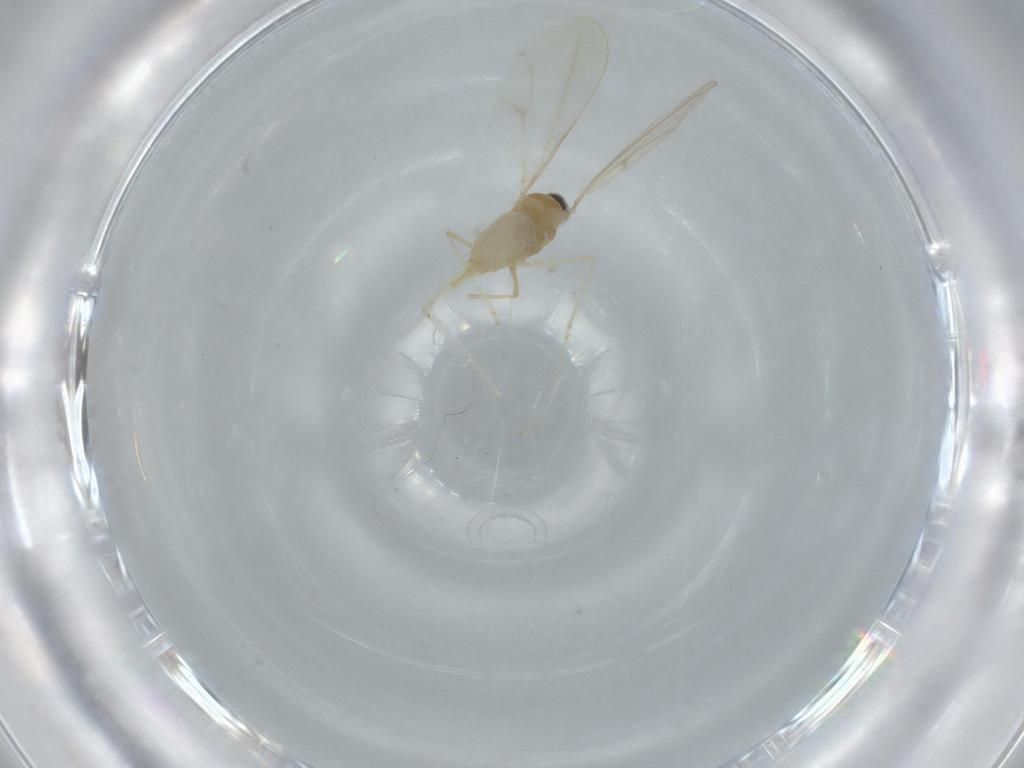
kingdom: Animalia
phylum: Arthropoda
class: Insecta
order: Diptera
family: Cecidomyiidae
